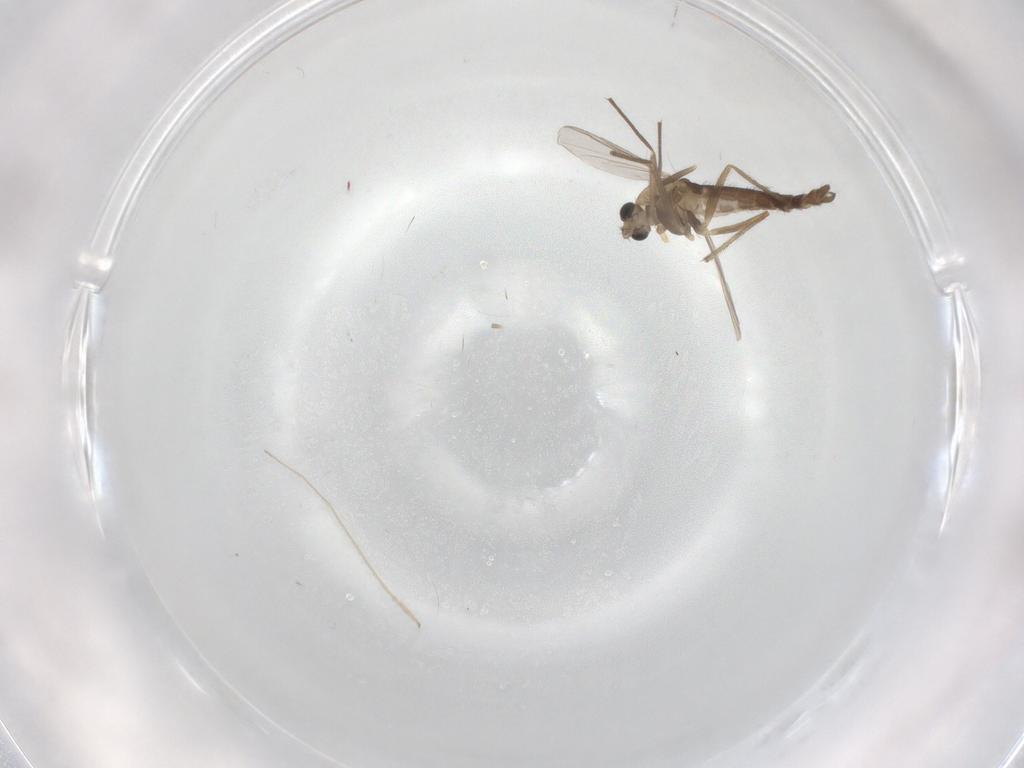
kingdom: Animalia
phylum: Arthropoda
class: Insecta
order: Diptera
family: Chironomidae
